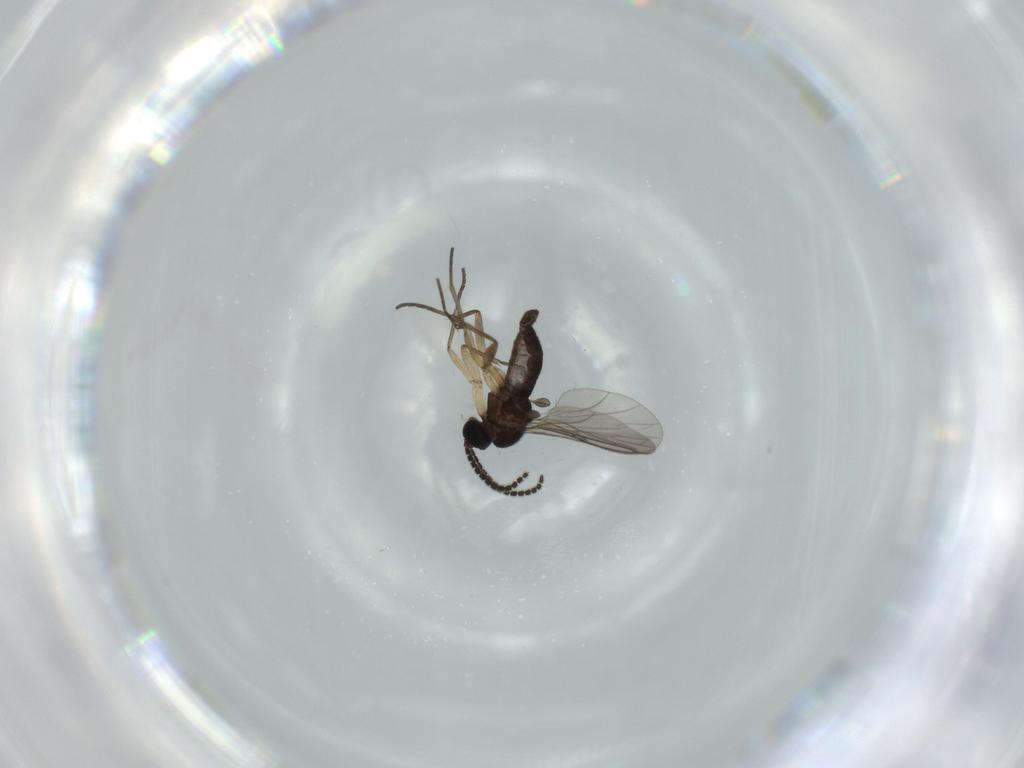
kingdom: Animalia
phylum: Arthropoda
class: Insecta
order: Diptera
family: Sciaridae
